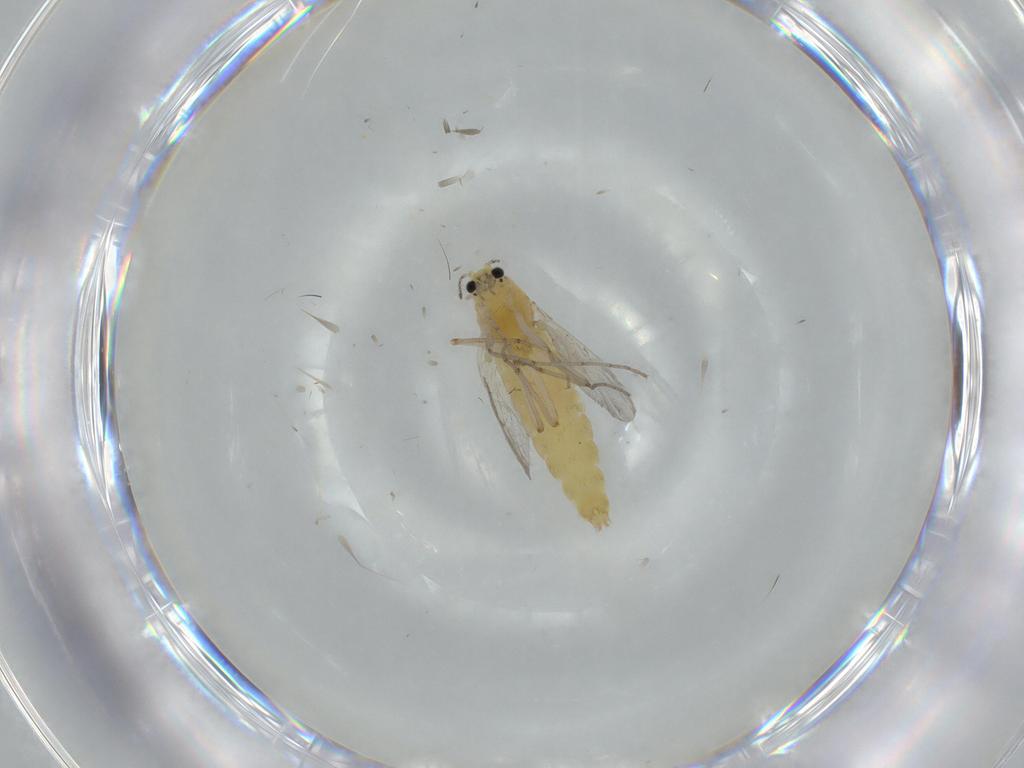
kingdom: Animalia
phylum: Arthropoda
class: Insecta
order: Diptera
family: Chironomidae
